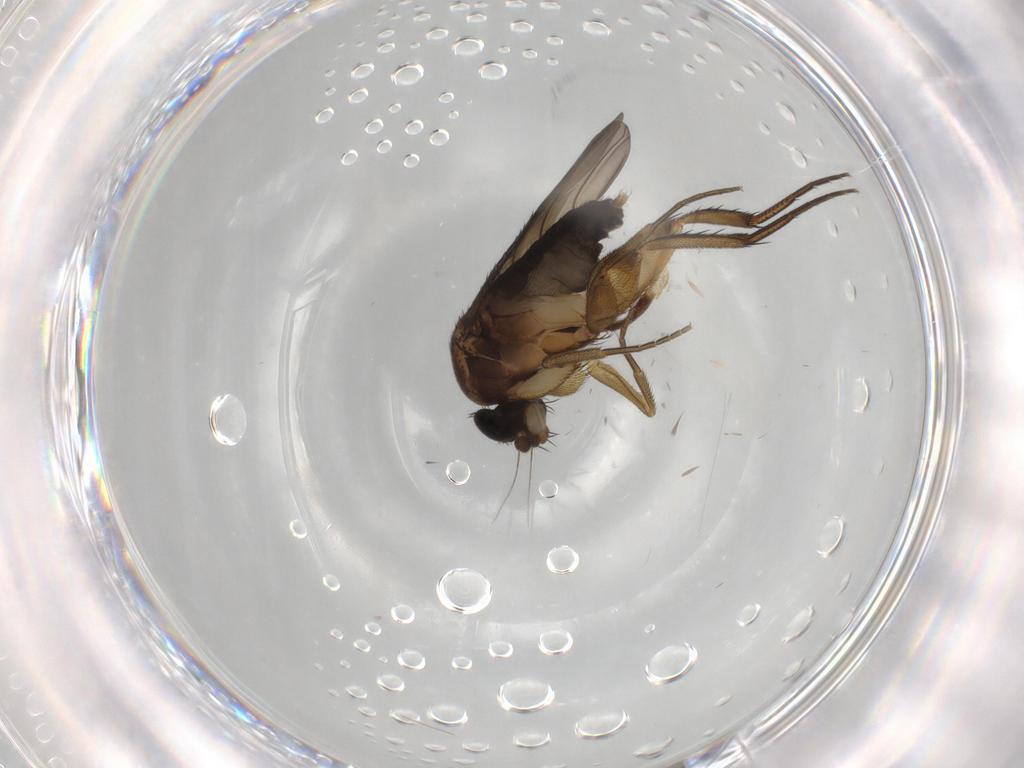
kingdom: Animalia
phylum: Arthropoda
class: Insecta
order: Diptera
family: Phoridae
